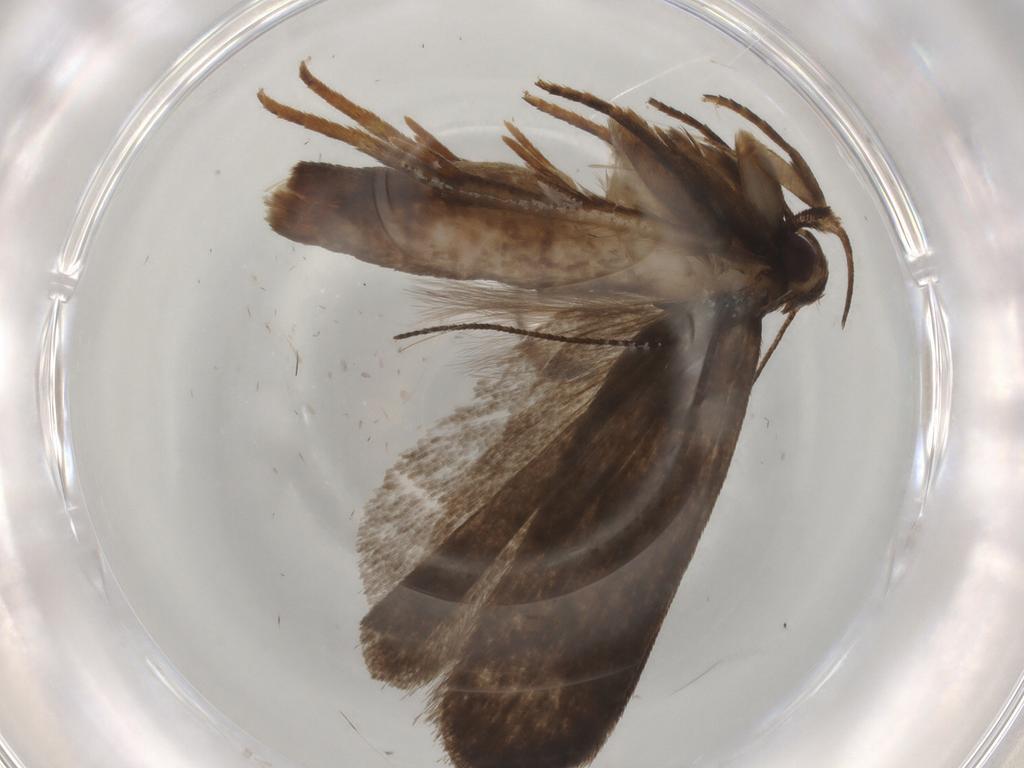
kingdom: Animalia
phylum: Arthropoda
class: Insecta
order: Lepidoptera
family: Gelechiidae
